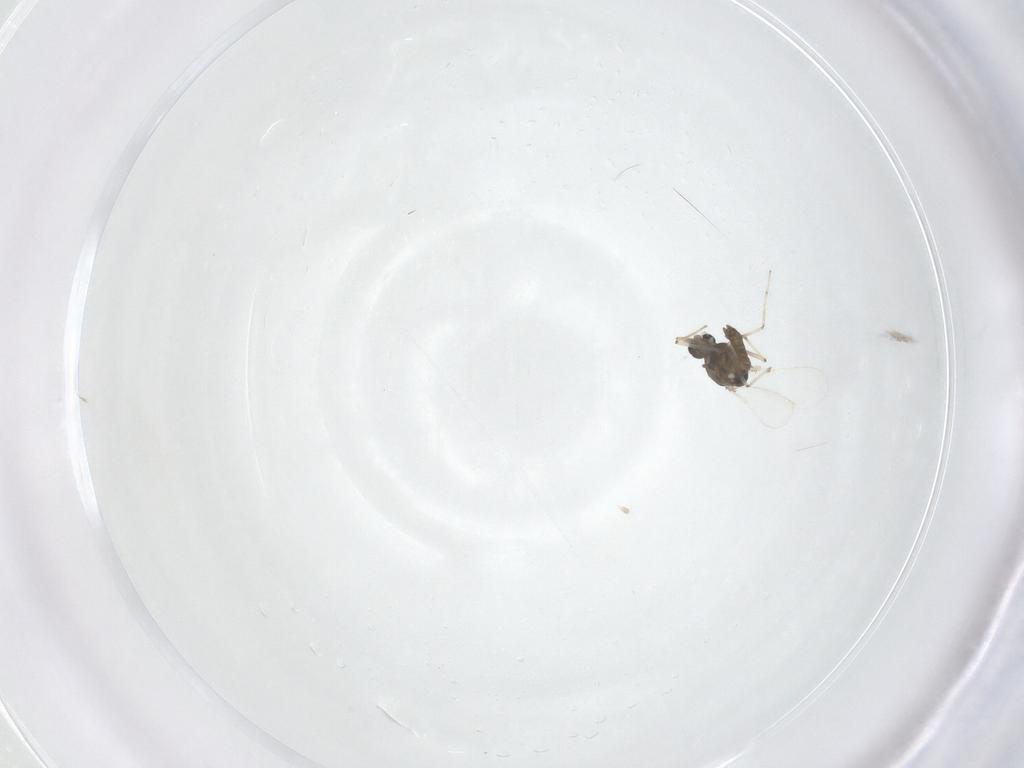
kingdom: Animalia
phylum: Arthropoda
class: Insecta
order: Diptera
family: Chironomidae
